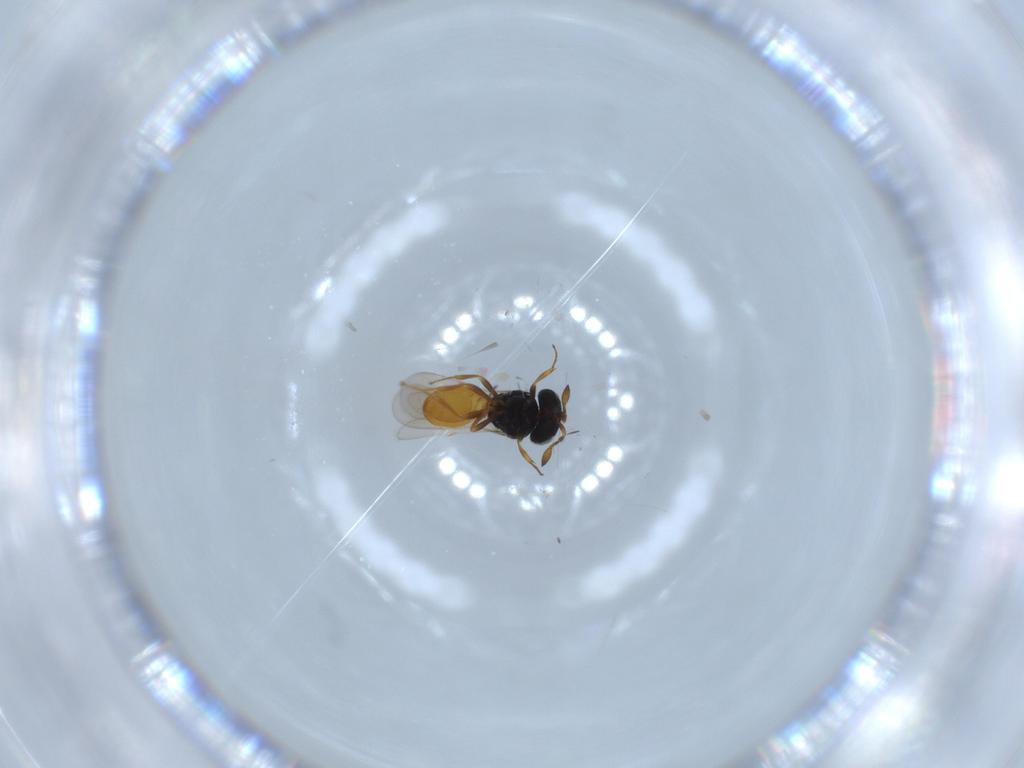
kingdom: Animalia
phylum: Arthropoda
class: Insecta
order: Hymenoptera
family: Scelionidae
